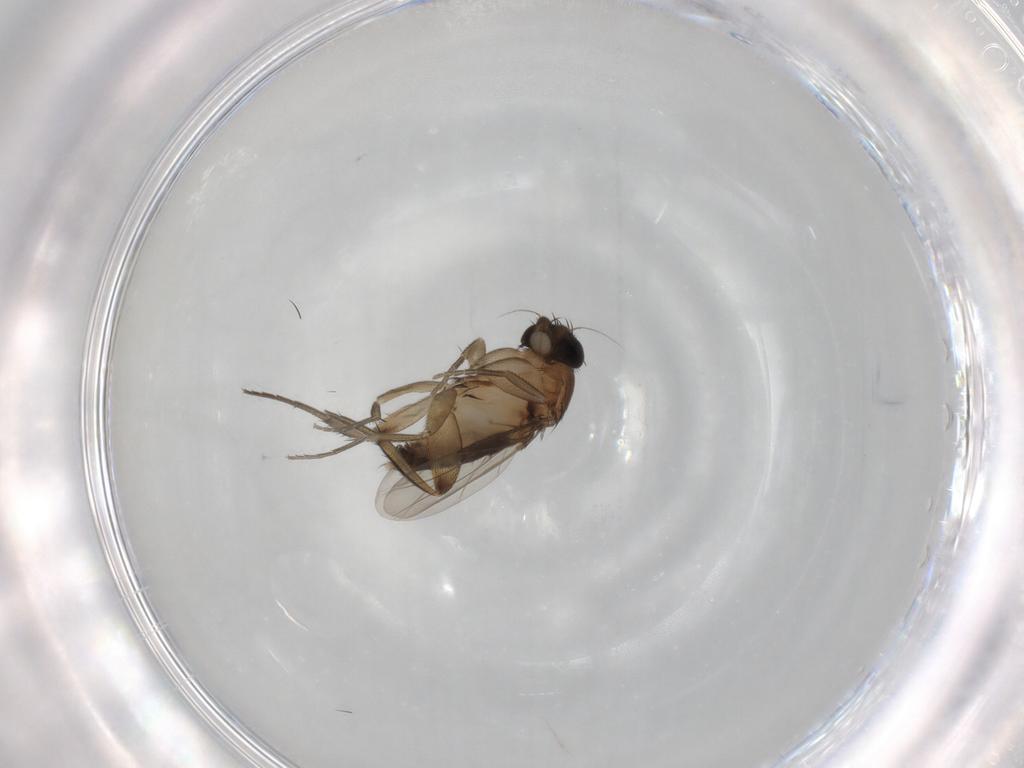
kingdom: Animalia
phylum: Arthropoda
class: Insecta
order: Diptera
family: Phoridae
